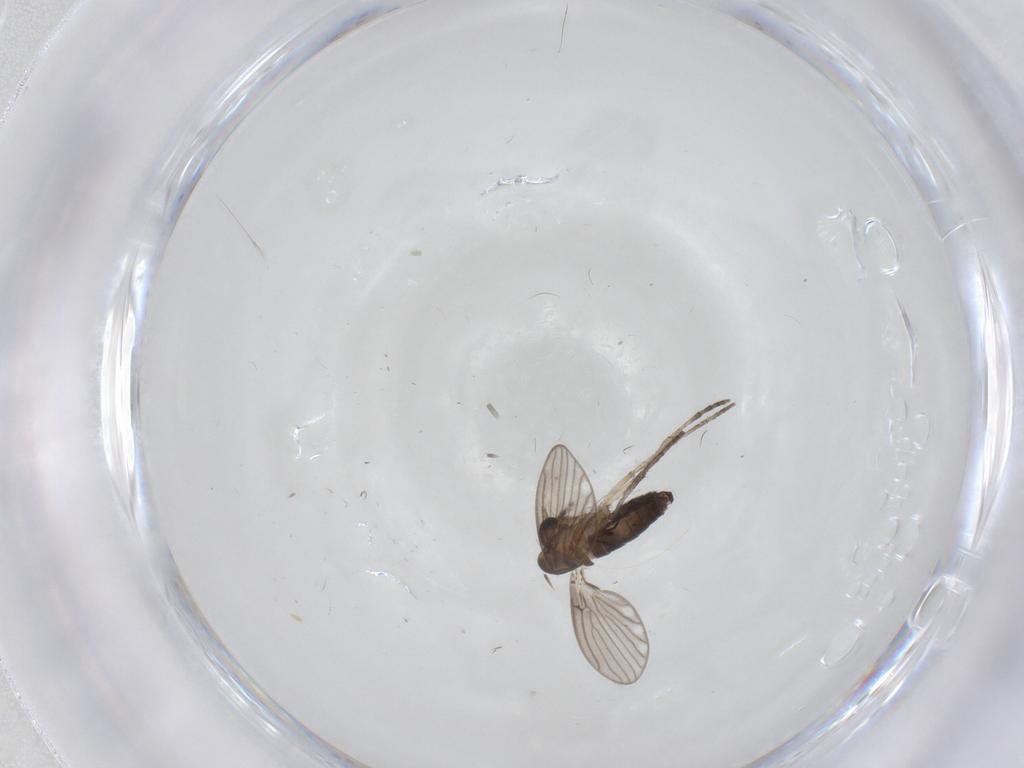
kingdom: Animalia
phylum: Arthropoda
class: Insecta
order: Diptera
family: Psychodidae
